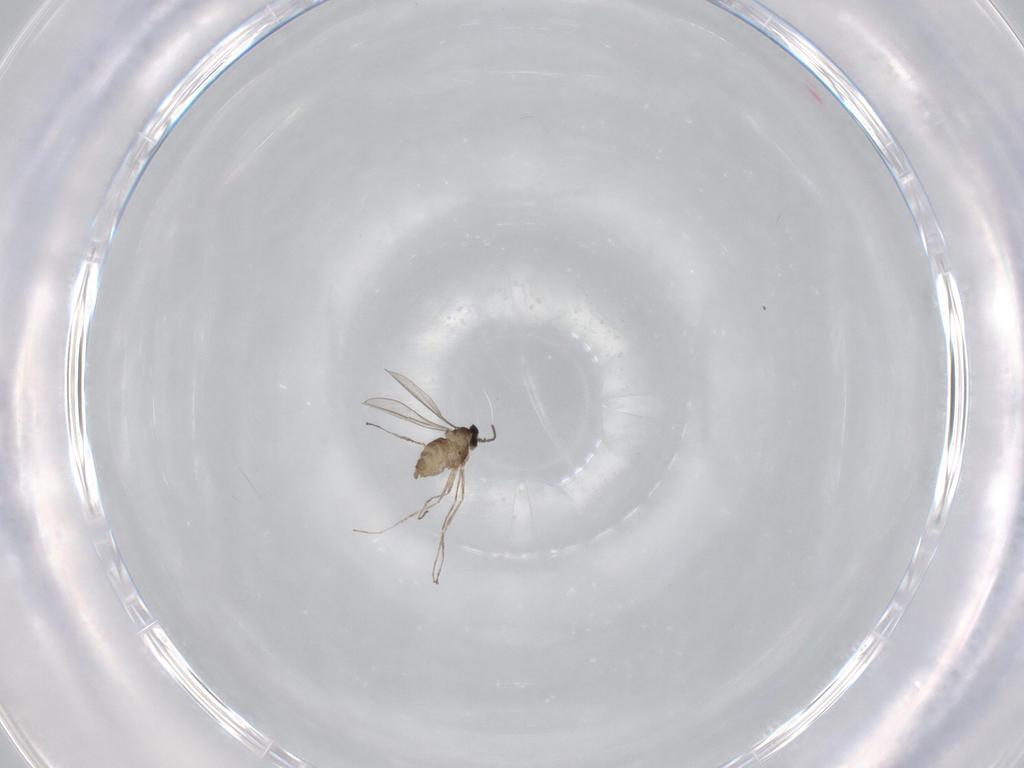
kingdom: Animalia
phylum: Arthropoda
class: Insecta
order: Diptera
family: Cecidomyiidae
